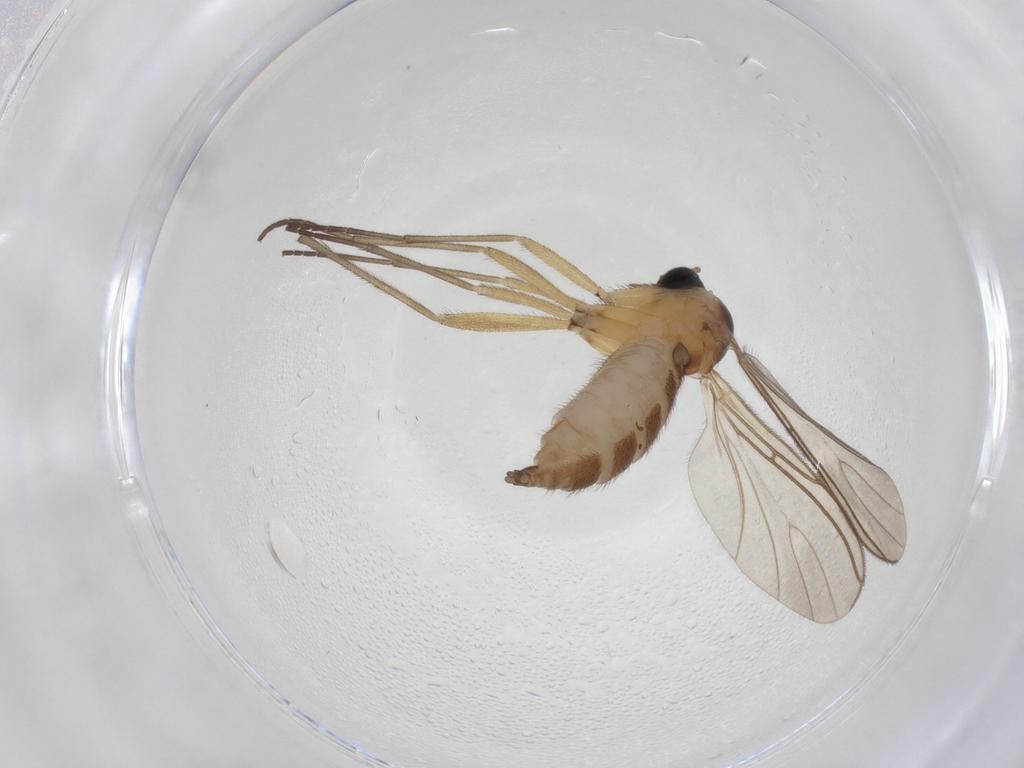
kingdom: Animalia
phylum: Arthropoda
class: Insecta
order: Diptera
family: Sciaridae
